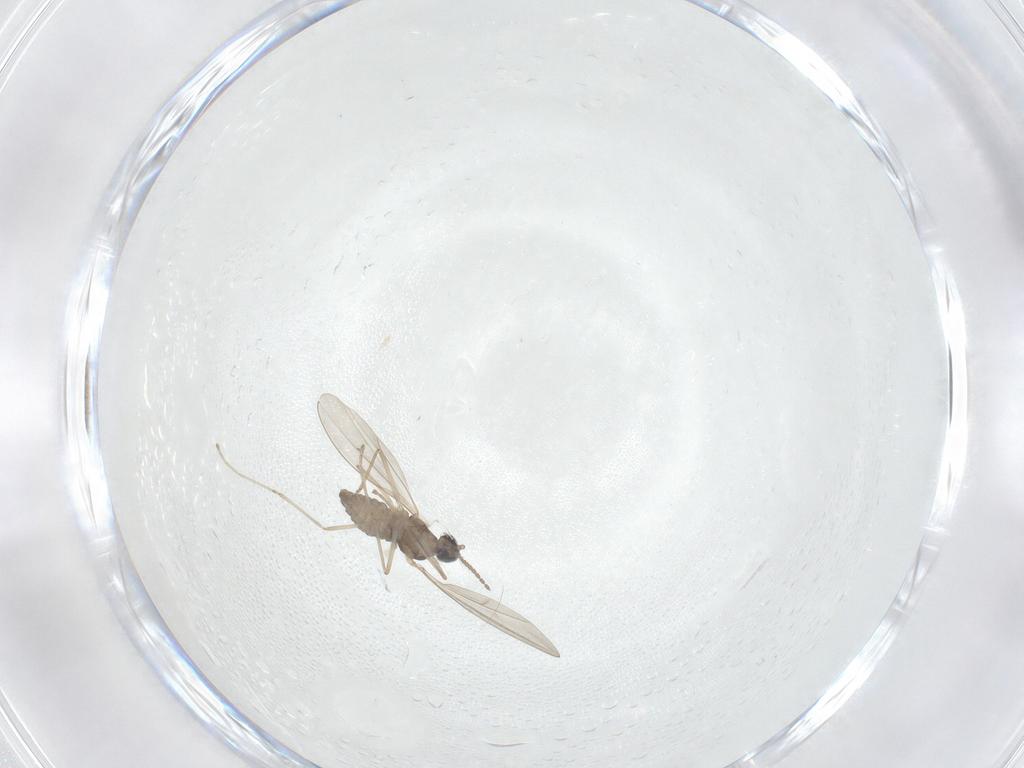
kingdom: Animalia
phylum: Arthropoda
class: Insecta
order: Diptera
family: Cecidomyiidae
